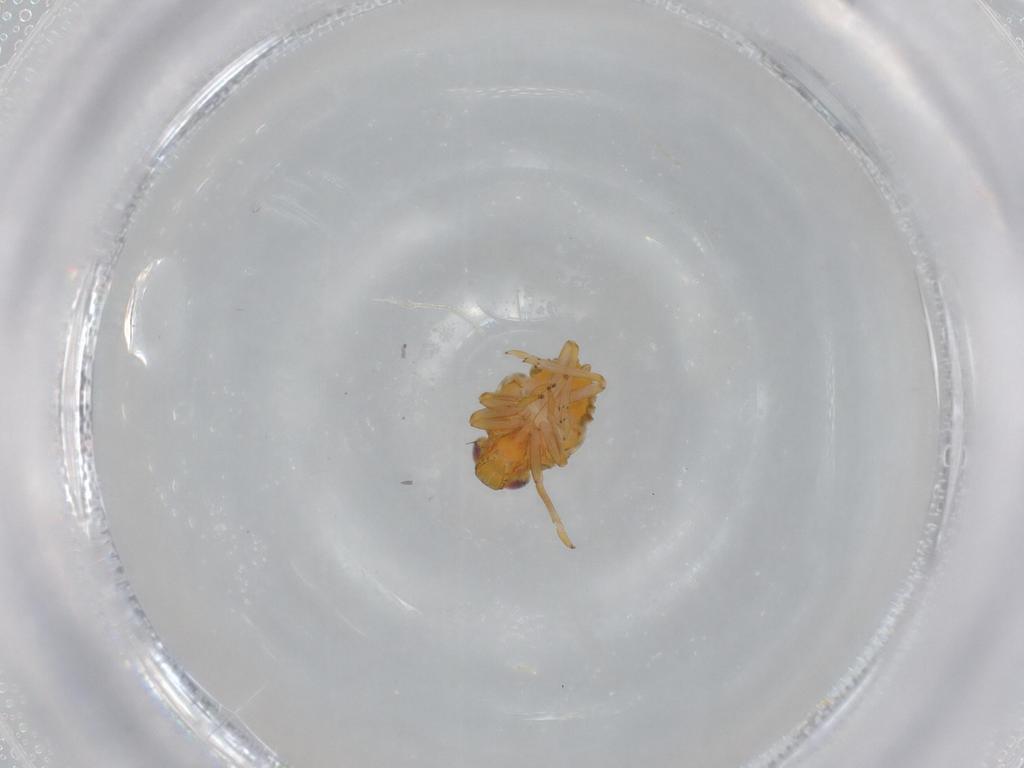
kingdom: Animalia
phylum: Arthropoda
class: Insecta
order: Hemiptera
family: Issidae
